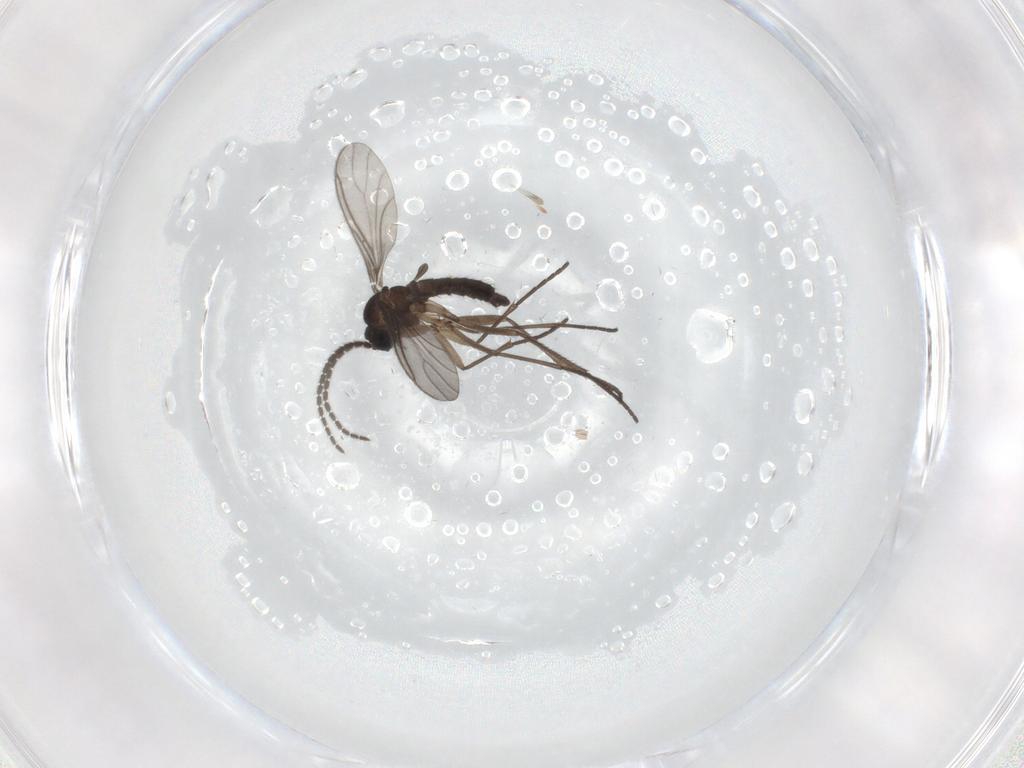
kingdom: Animalia
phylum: Arthropoda
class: Insecta
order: Diptera
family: Sciaridae
